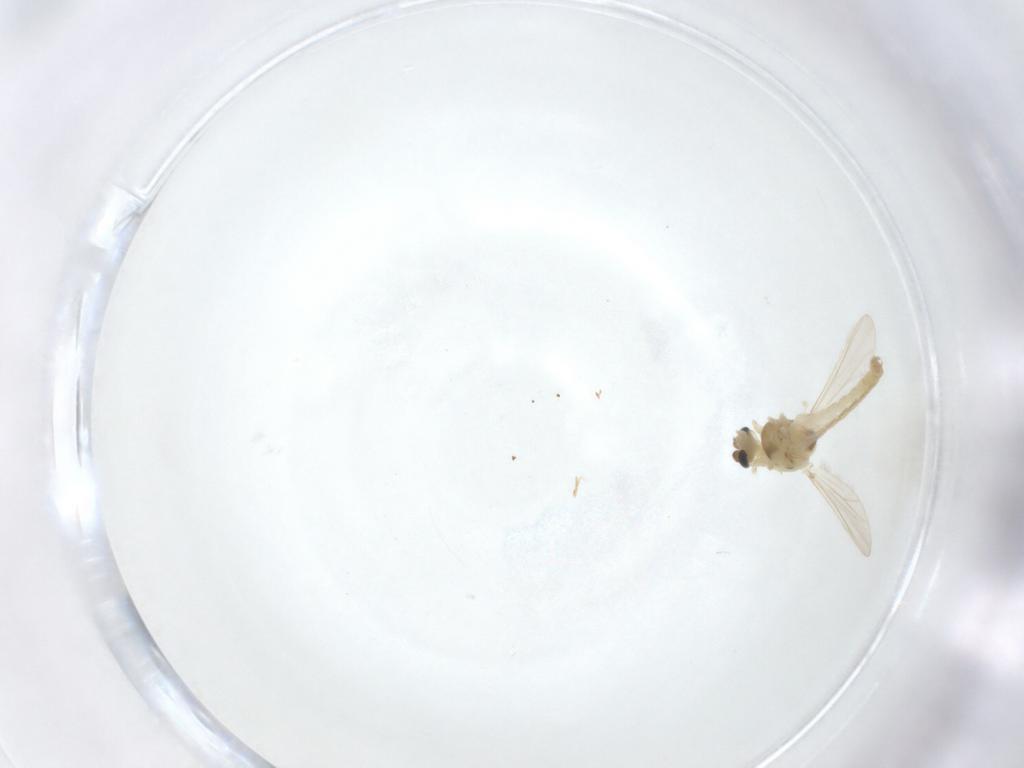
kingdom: Animalia
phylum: Arthropoda
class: Insecta
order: Diptera
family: Chironomidae
